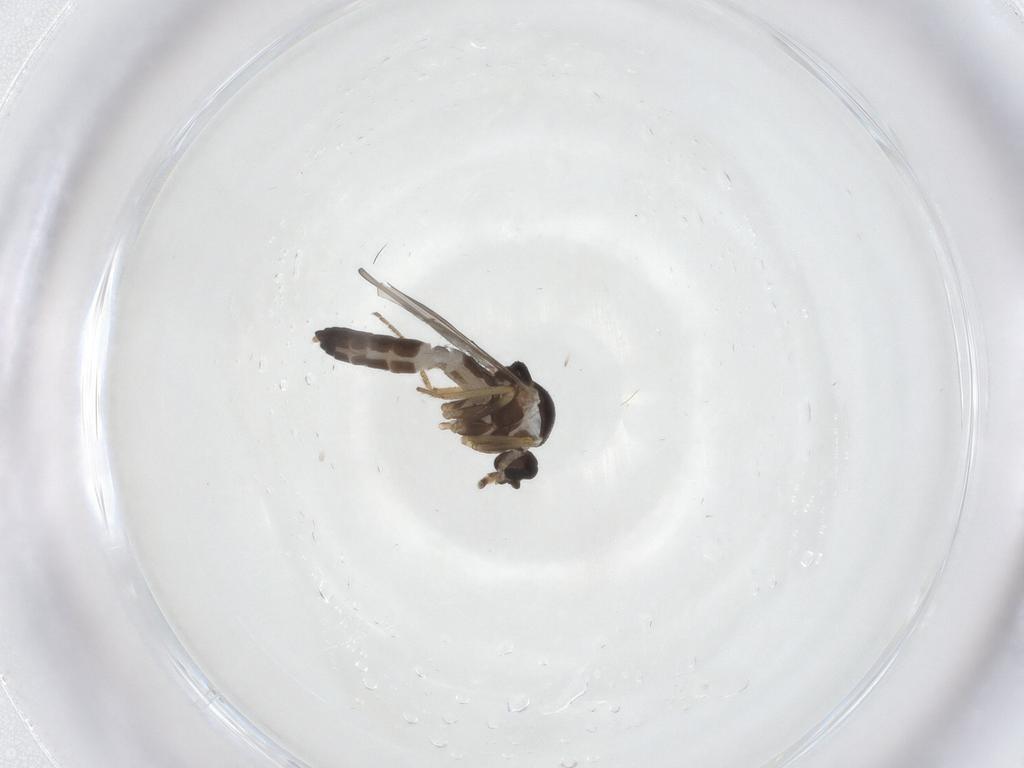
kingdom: Animalia
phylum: Arthropoda
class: Insecta
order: Diptera
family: Ceratopogonidae
